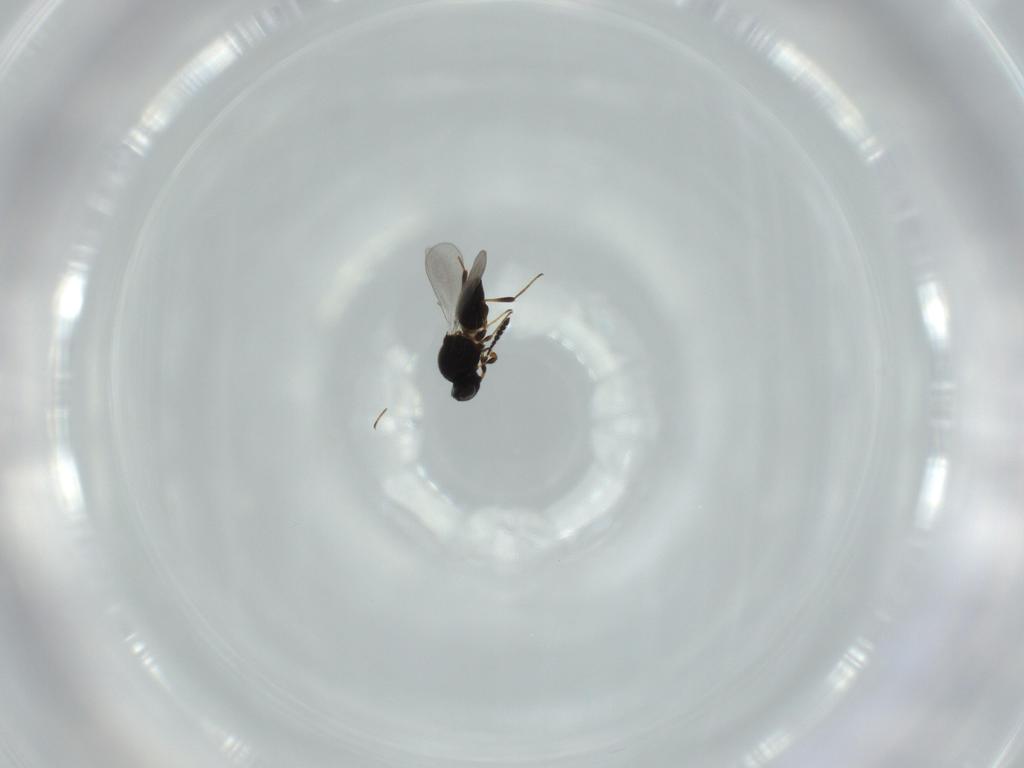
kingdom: Animalia
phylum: Arthropoda
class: Insecta
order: Hymenoptera
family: Platygastridae
